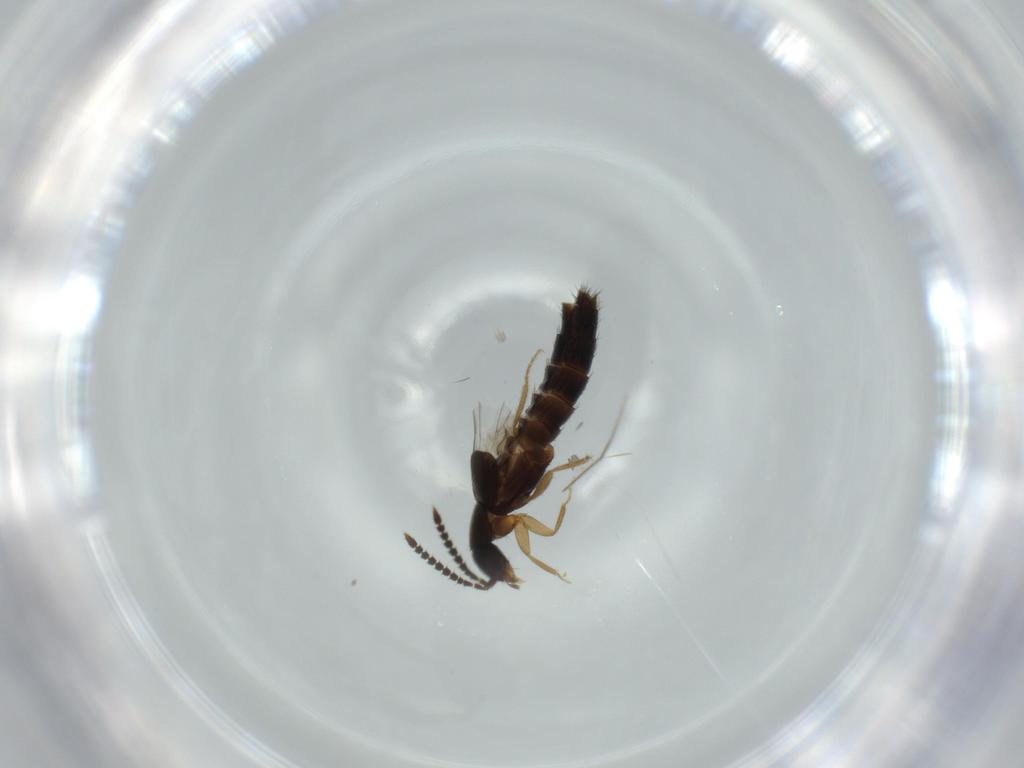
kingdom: Animalia
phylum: Arthropoda
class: Insecta
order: Coleoptera
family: Staphylinidae
